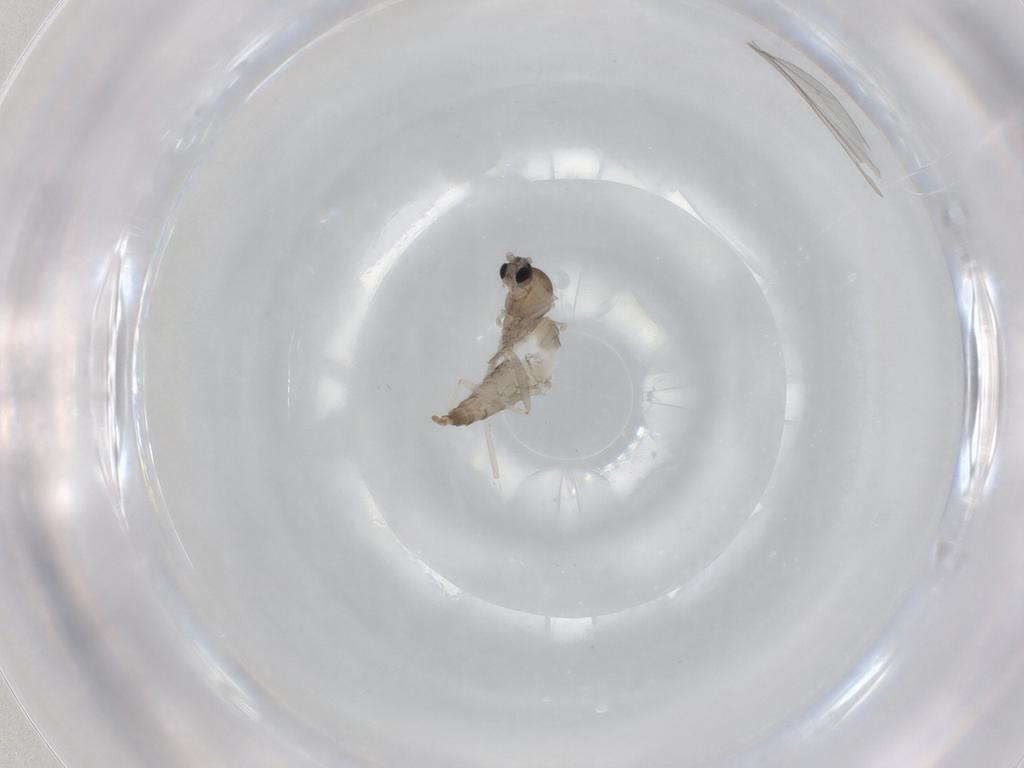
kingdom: Animalia
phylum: Arthropoda
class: Insecta
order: Diptera
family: Cecidomyiidae
